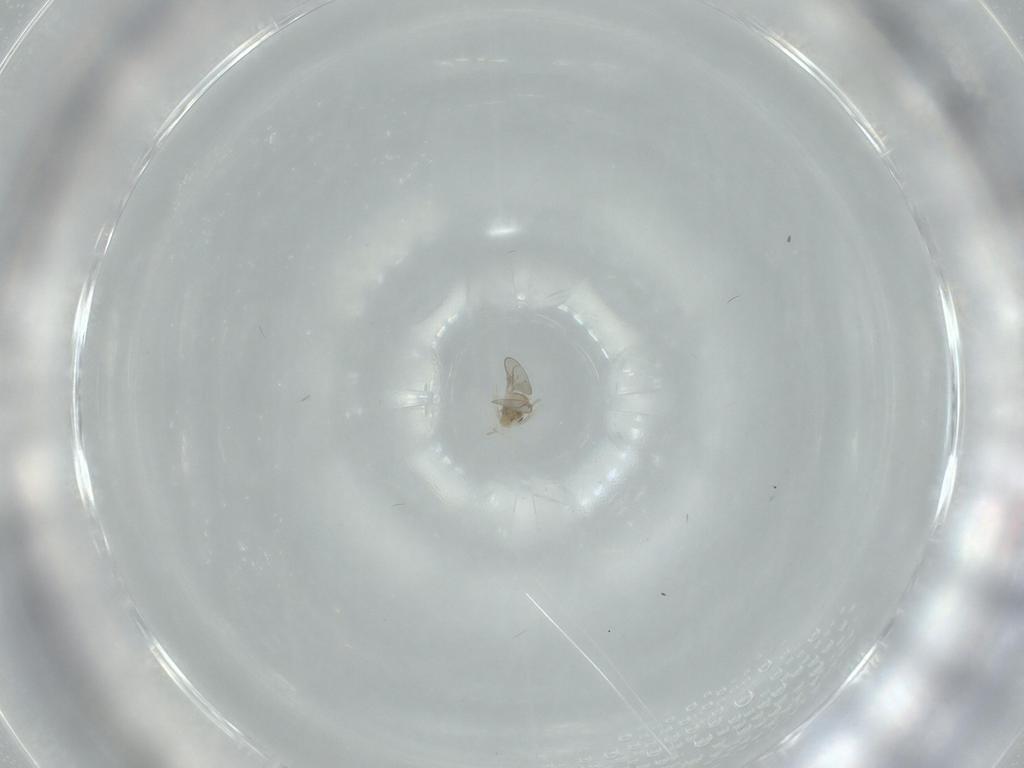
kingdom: Animalia
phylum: Arthropoda
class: Insecta
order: Diptera
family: Cecidomyiidae
